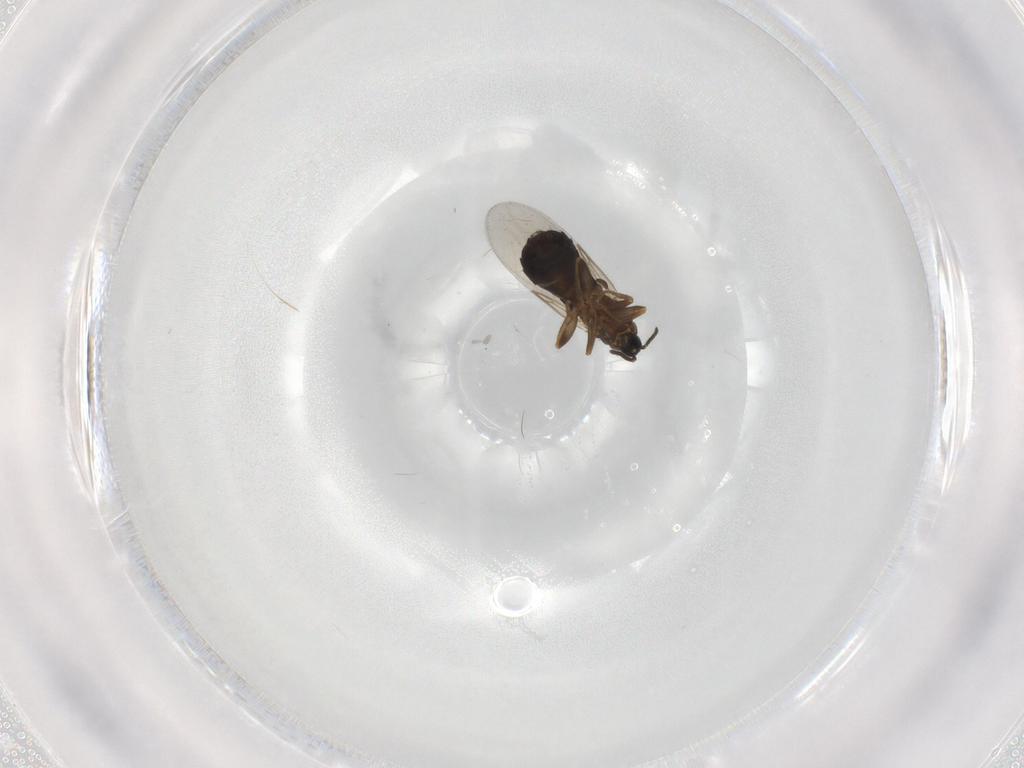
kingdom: Animalia
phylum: Arthropoda
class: Insecta
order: Diptera
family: Scatopsidae
